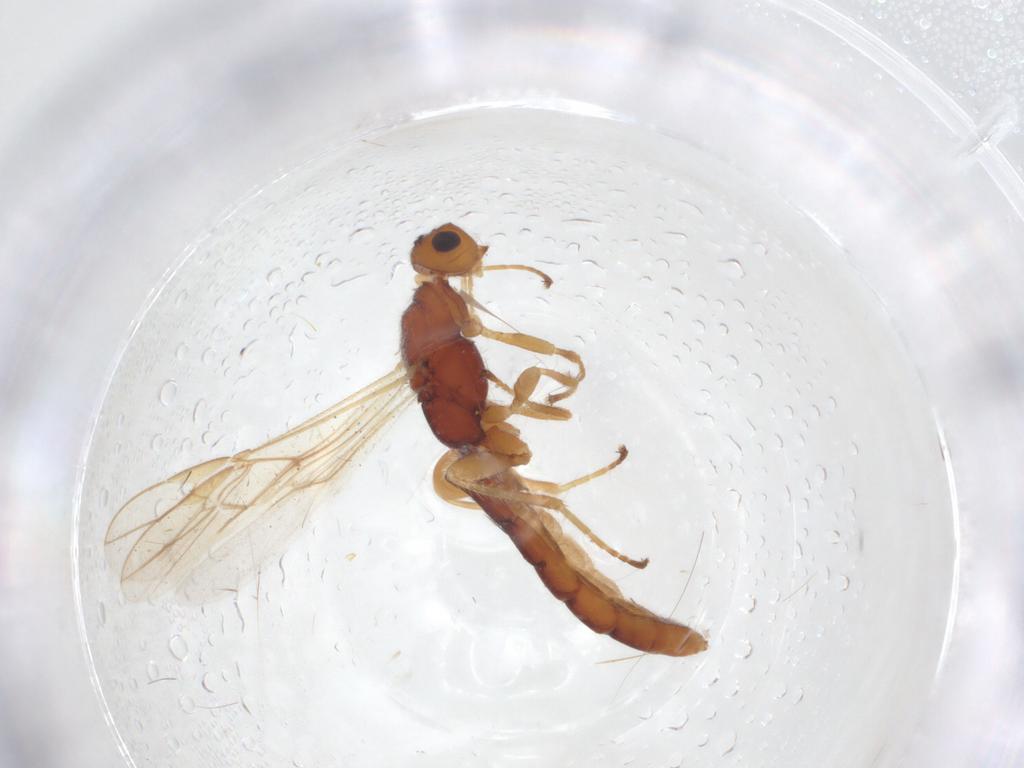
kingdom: Animalia
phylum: Arthropoda
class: Insecta
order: Hymenoptera
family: Braconidae
